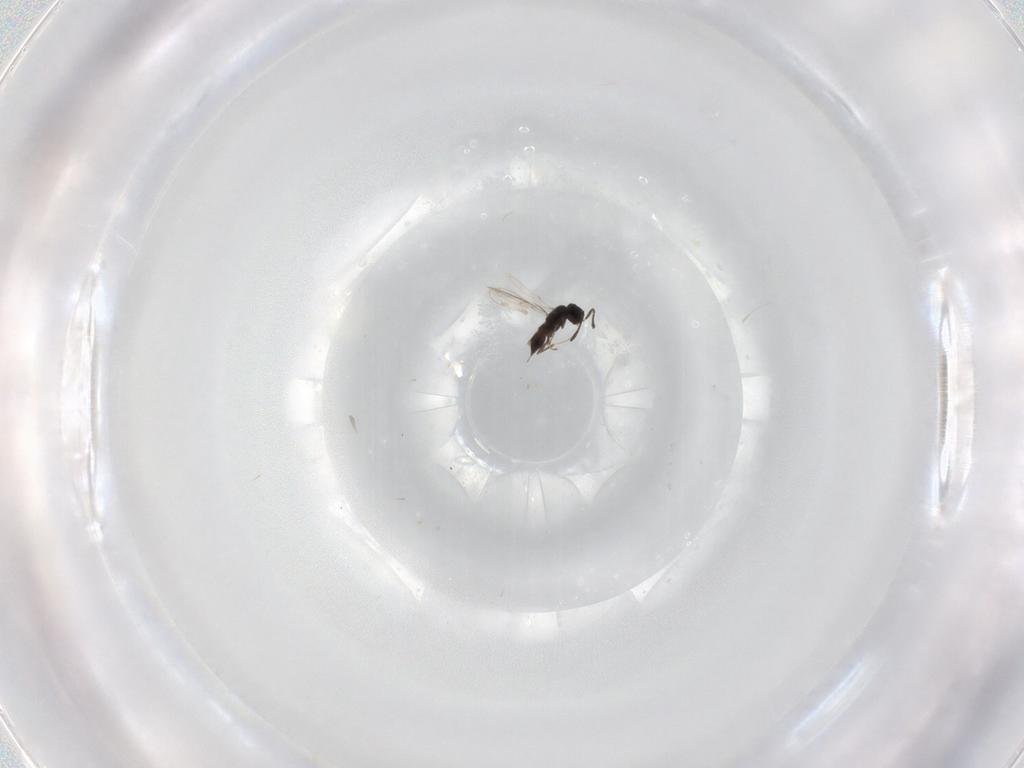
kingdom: Animalia
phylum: Arthropoda
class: Insecta
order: Hymenoptera
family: Scelionidae
